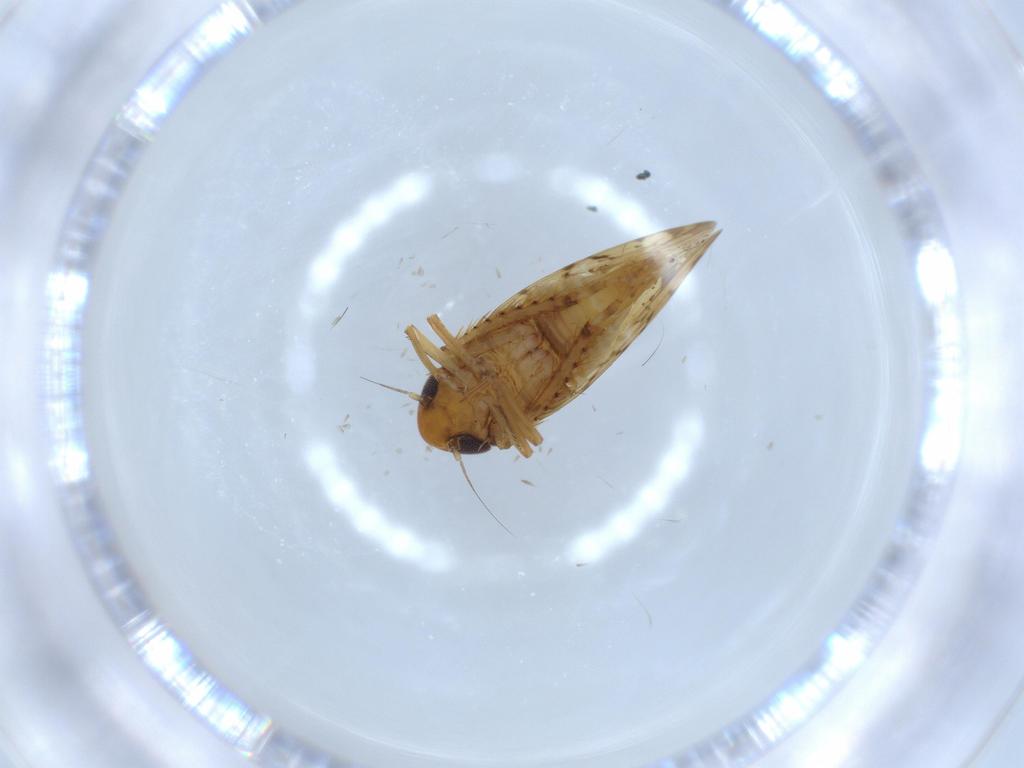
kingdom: Animalia
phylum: Arthropoda
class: Insecta
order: Hemiptera
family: Cicadellidae
